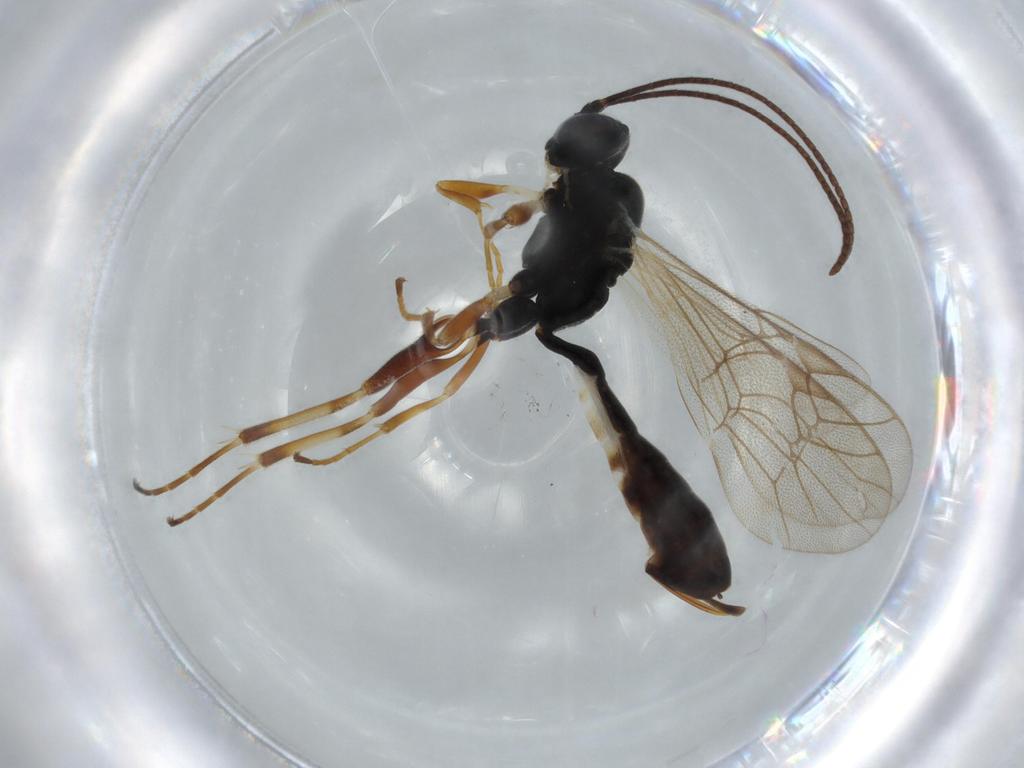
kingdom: Animalia
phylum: Arthropoda
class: Insecta
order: Hymenoptera
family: Ichneumonidae
